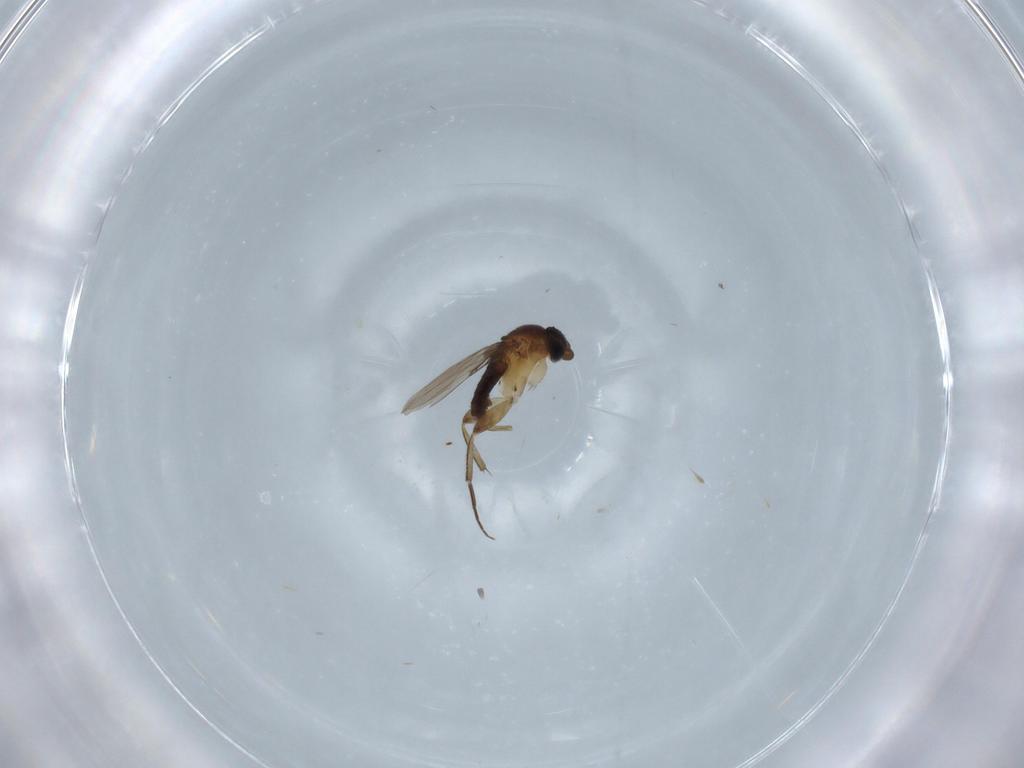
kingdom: Animalia
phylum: Arthropoda
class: Insecta
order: Diptera
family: Phoridae
